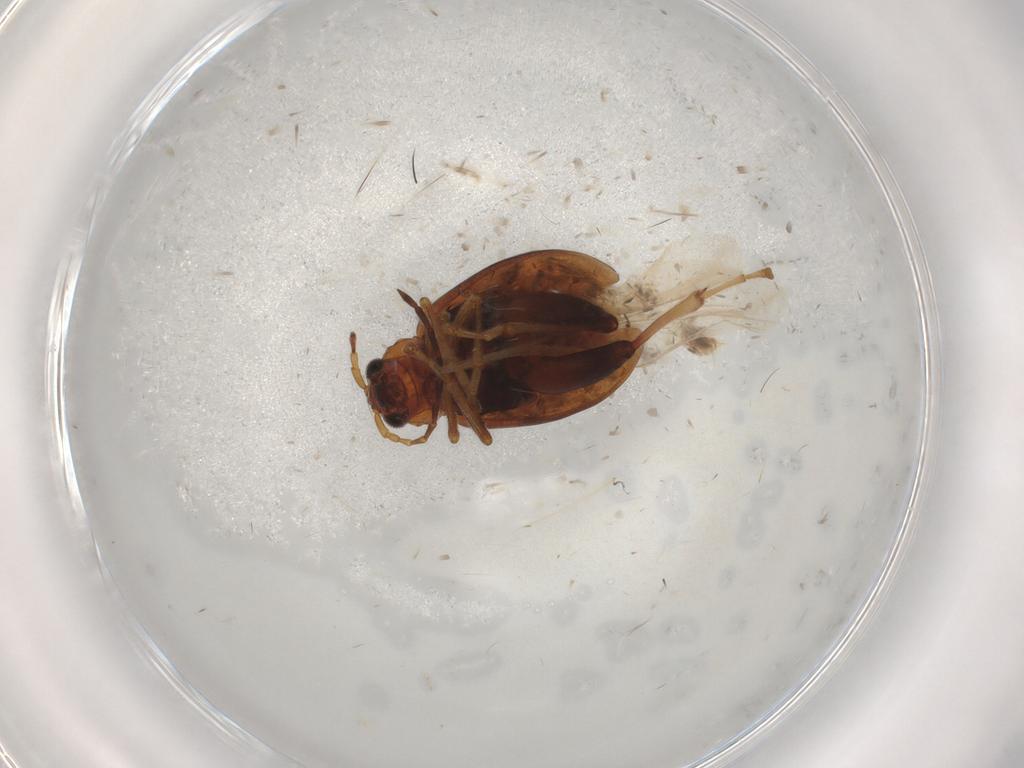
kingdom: Animalia
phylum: Arthropoda
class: Insecta
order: Coleoptera
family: Chrysomelidae
